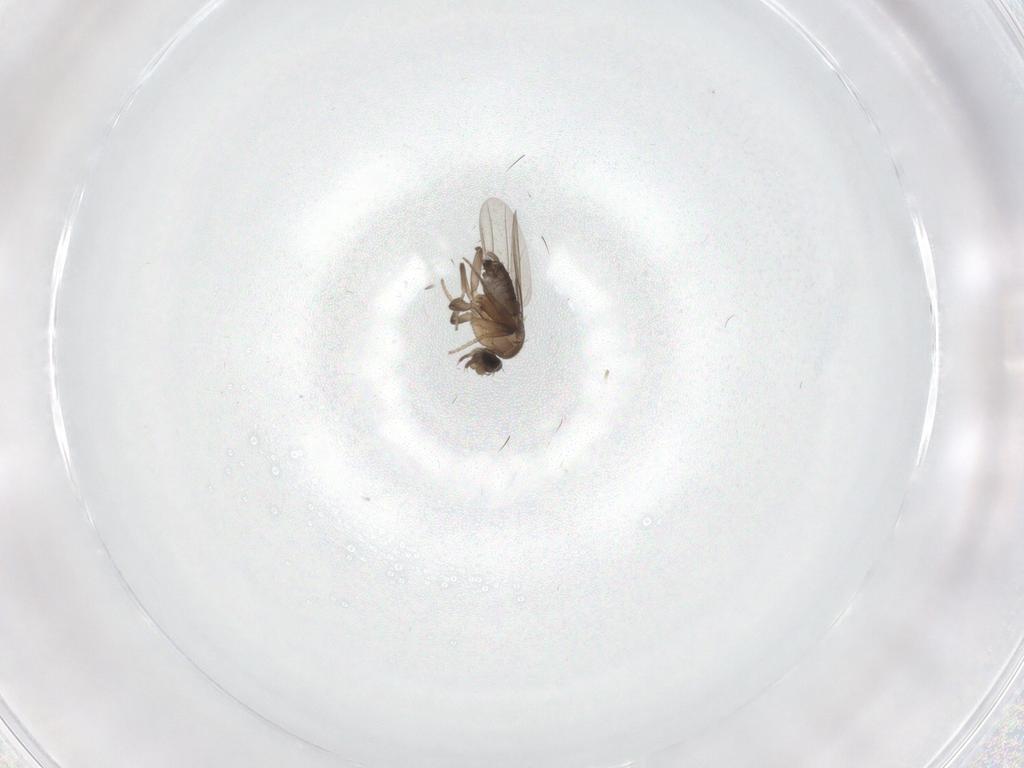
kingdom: Animalia
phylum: Arthropoda
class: Insecta
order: Diptera
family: Phoridae
